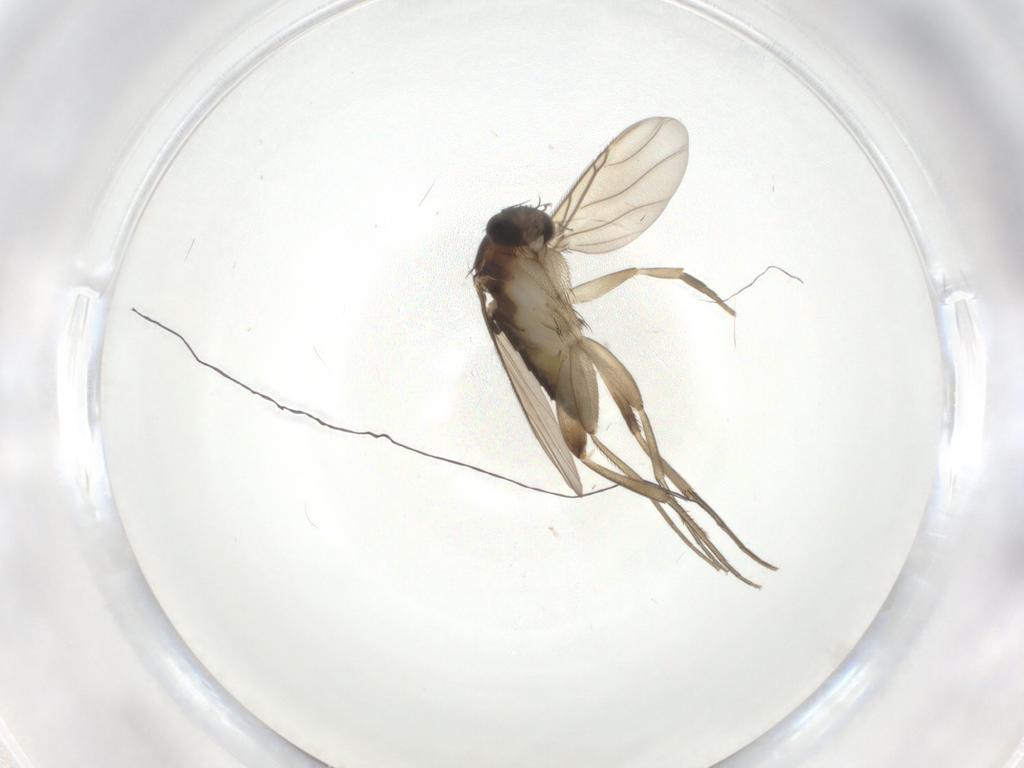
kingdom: Animalia
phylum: Arthropoda
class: Insecta
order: Diptera
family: Phoridae
